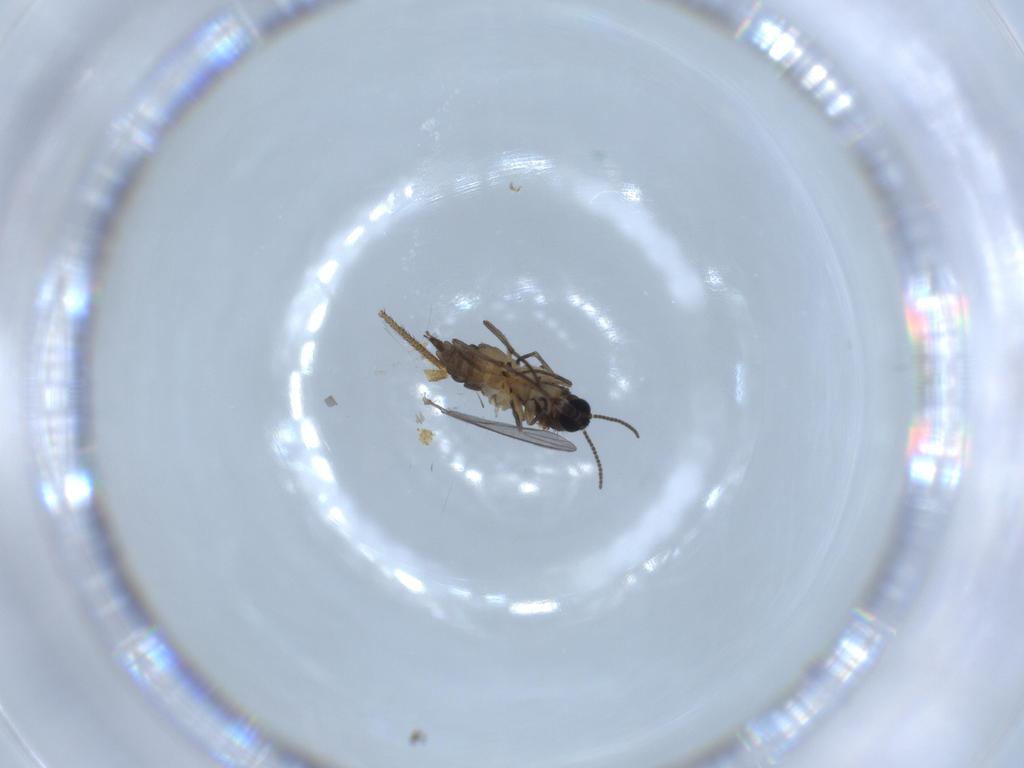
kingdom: Animalia
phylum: Arthropoda
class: Insecta
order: Diptera
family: Sciaridae
